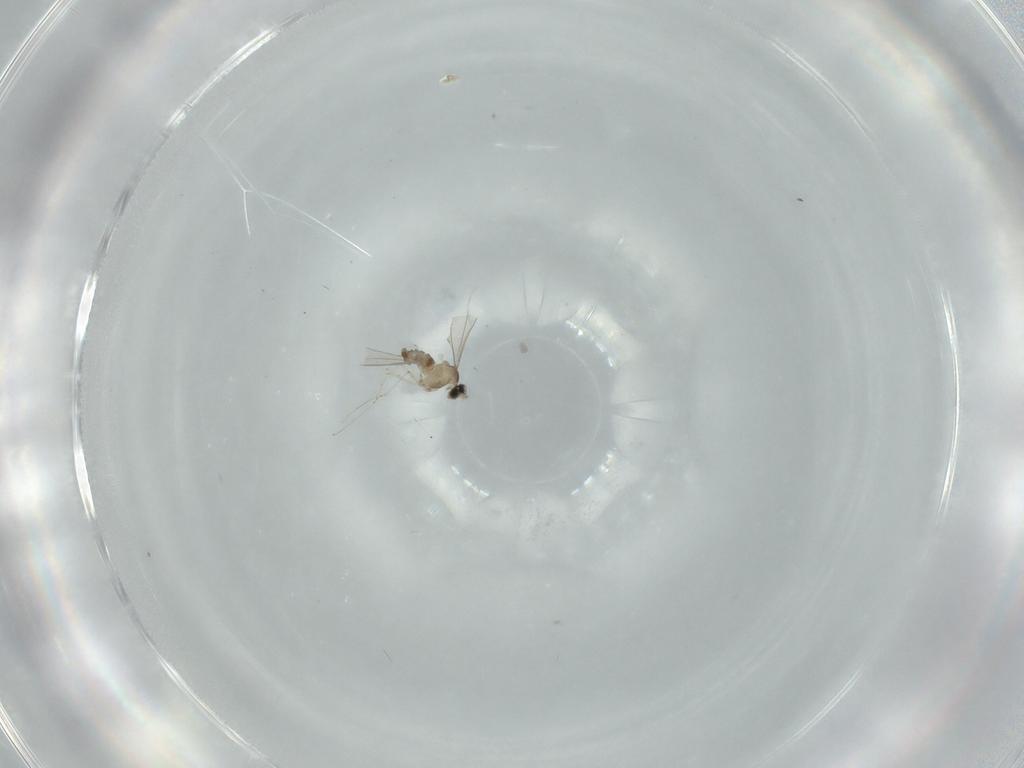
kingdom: Animalia
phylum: Arthropoda
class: Insecta
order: Diptera
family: Cecidomyiidae
